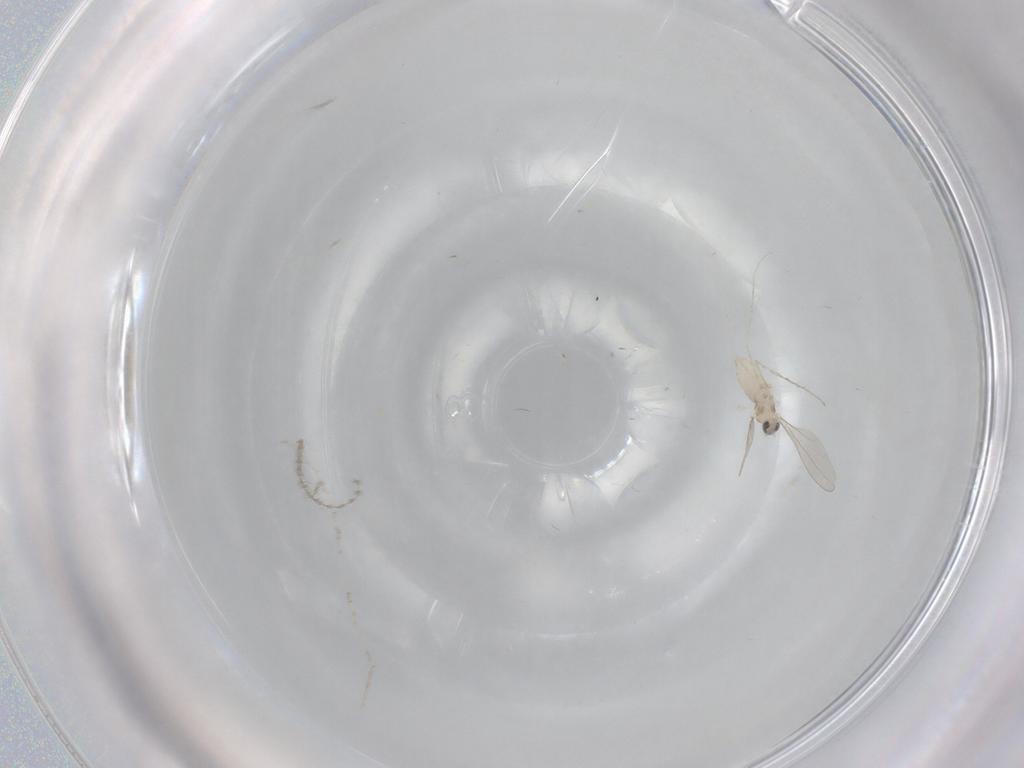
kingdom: Animalia
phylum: Arthropoda
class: Insecta
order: Diptera
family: Cecidomyiidae
